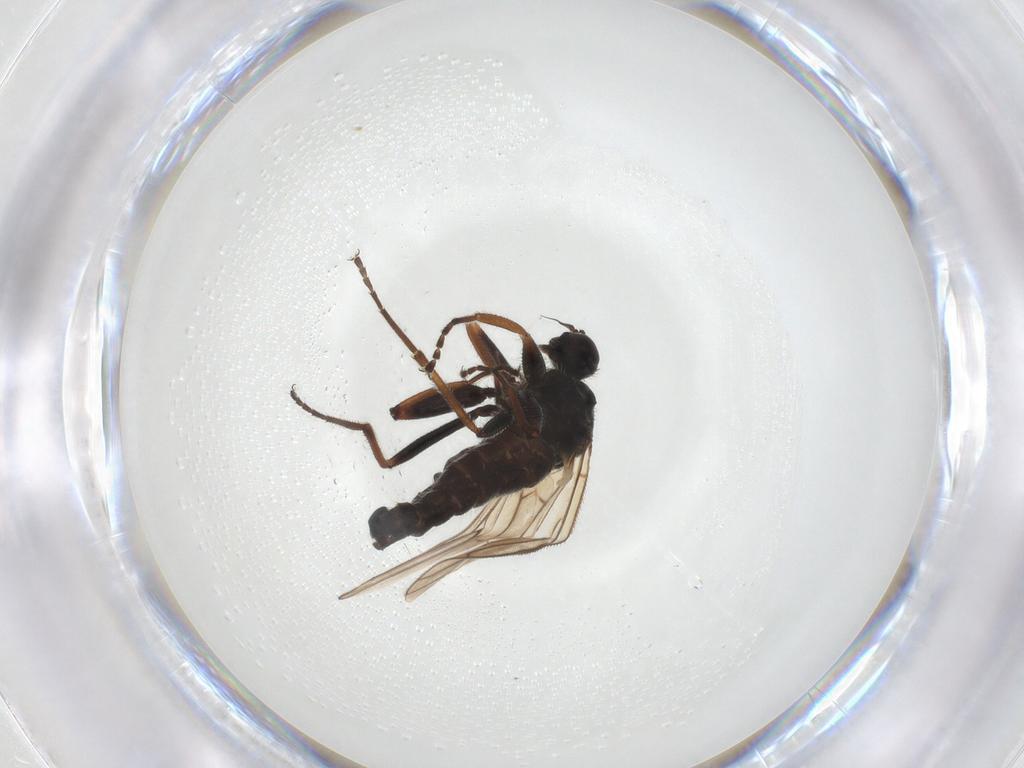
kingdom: Animalia
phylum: Arthropoda
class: Insecta
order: Diptera
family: Hybotidae
